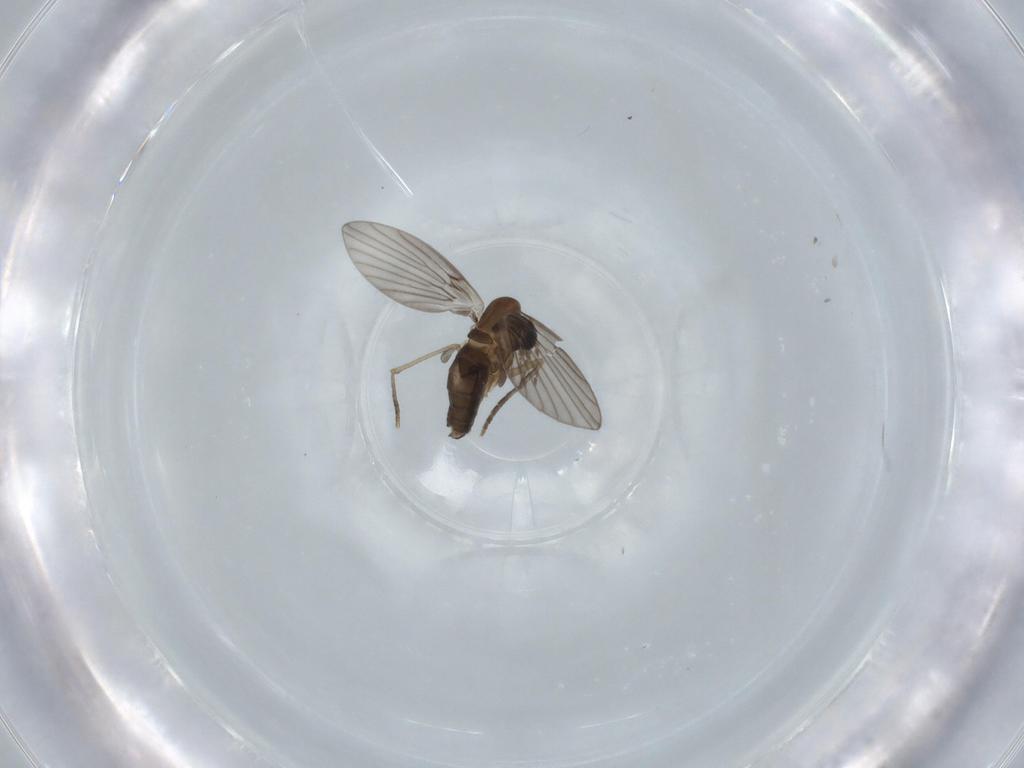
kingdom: Animalia
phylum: Arthropoda
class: Insecta
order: Diptera
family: Psychodidae
